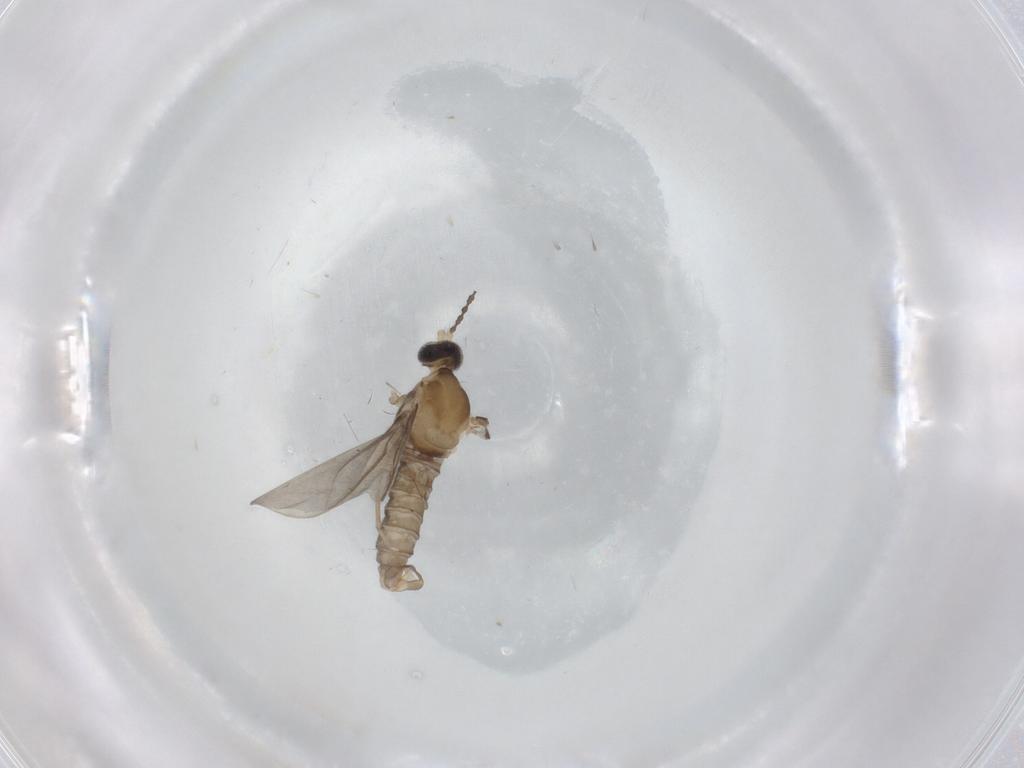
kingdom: Animalia
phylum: Arthropoda
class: Insecta
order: Diptera
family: Cecidomyiidae
